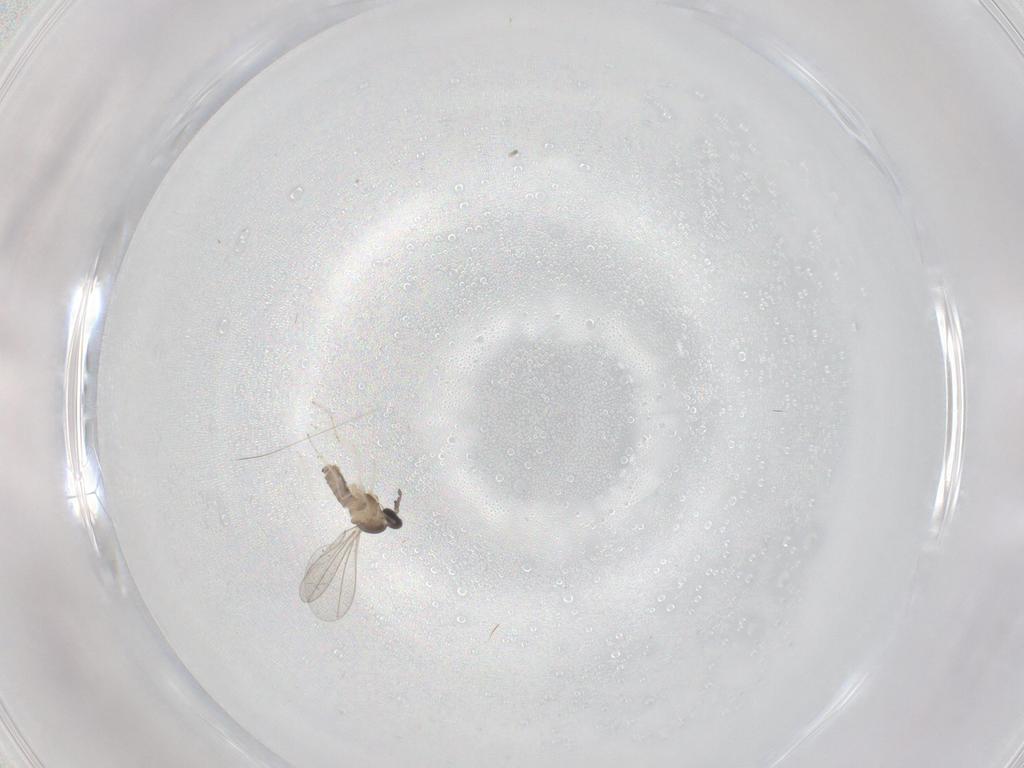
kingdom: Animalia
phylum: Arthropoda
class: Insecta
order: Diptera
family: Cecidomyiidae
